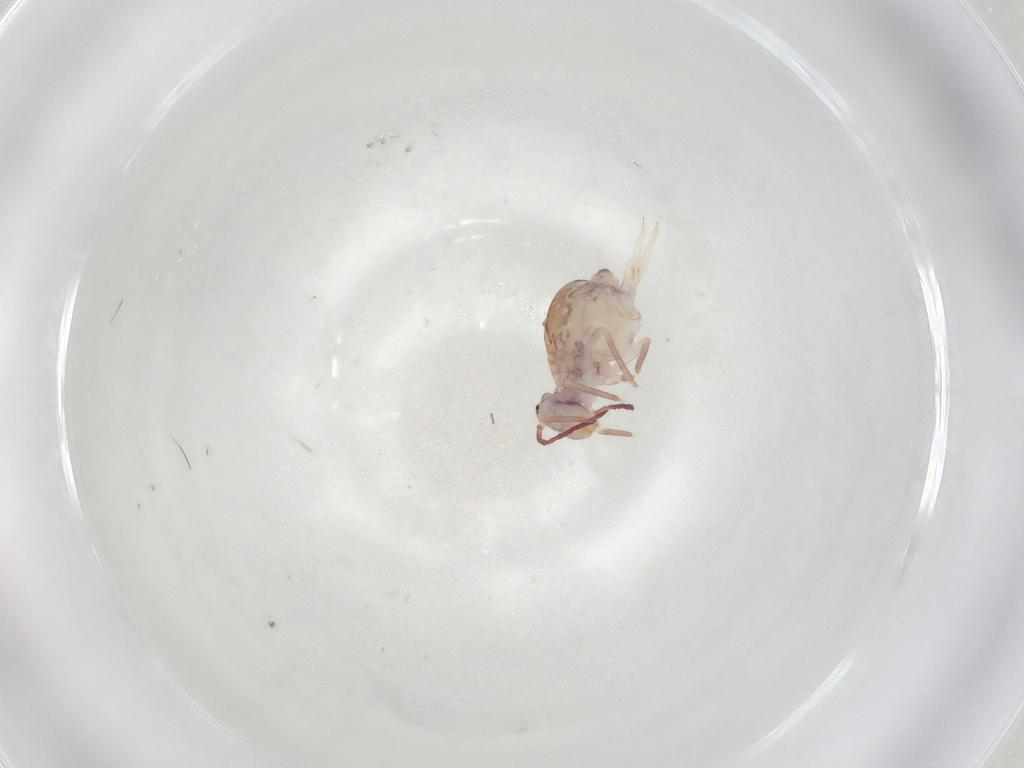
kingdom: Animalia
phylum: Arthropoda
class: Collembola
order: Symphypleona
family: Dicyrtomidae
